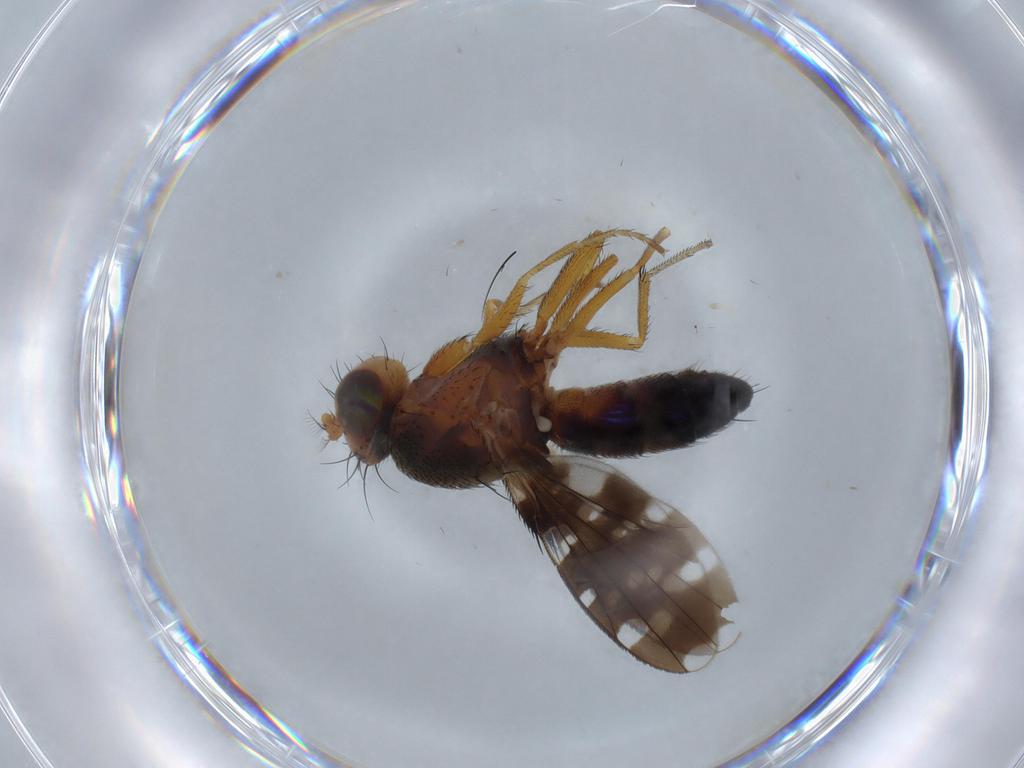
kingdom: Animalia
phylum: Arthropoda
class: Insecta
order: Diptera
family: Ephydridae
